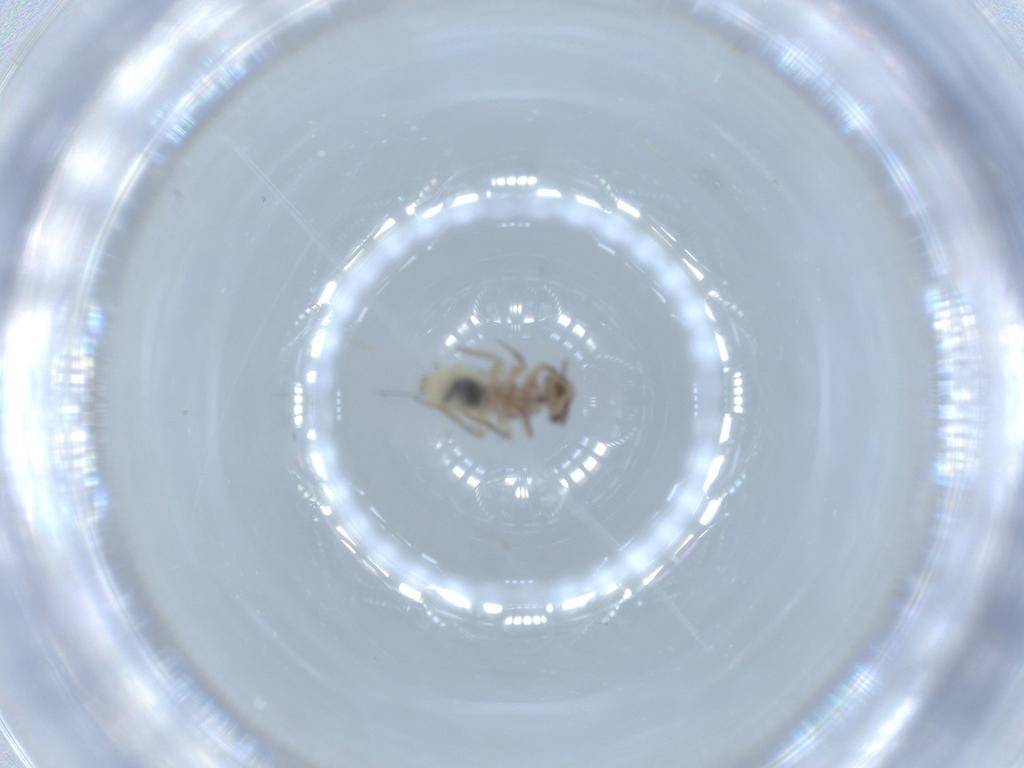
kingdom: Animalia
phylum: Arthropoda
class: Insecta
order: Psocodea
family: Lepidopsocidae
